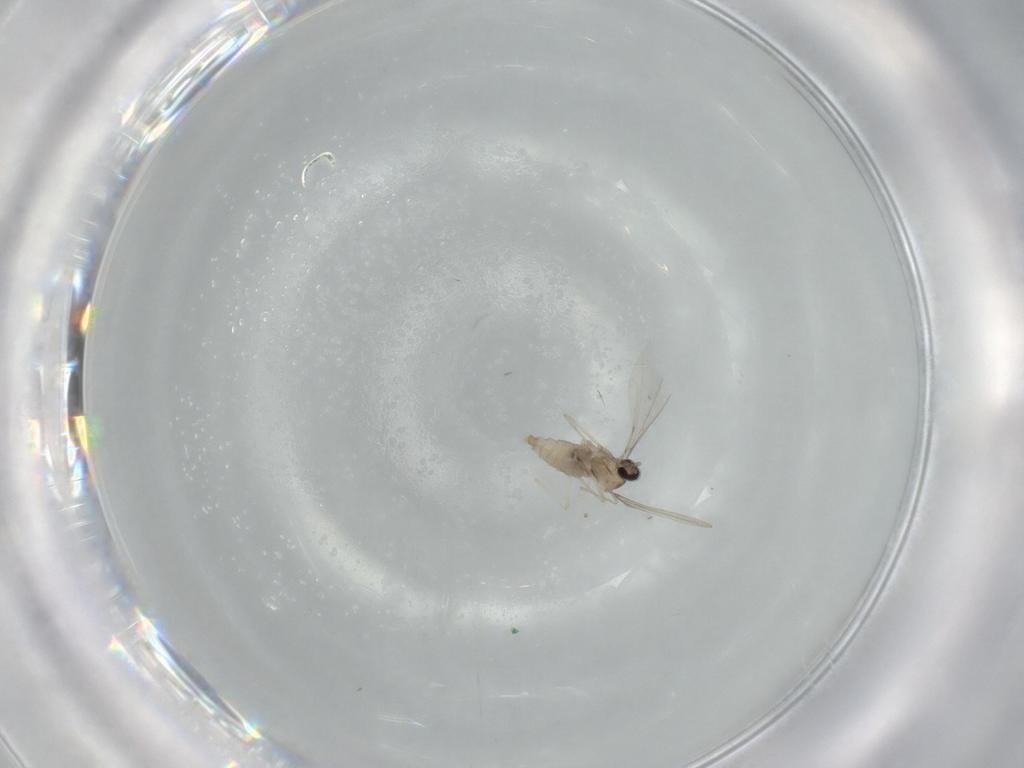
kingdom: Animalia
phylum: Arthropoda
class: Insecta
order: Diptera
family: Cecidomyiidae
